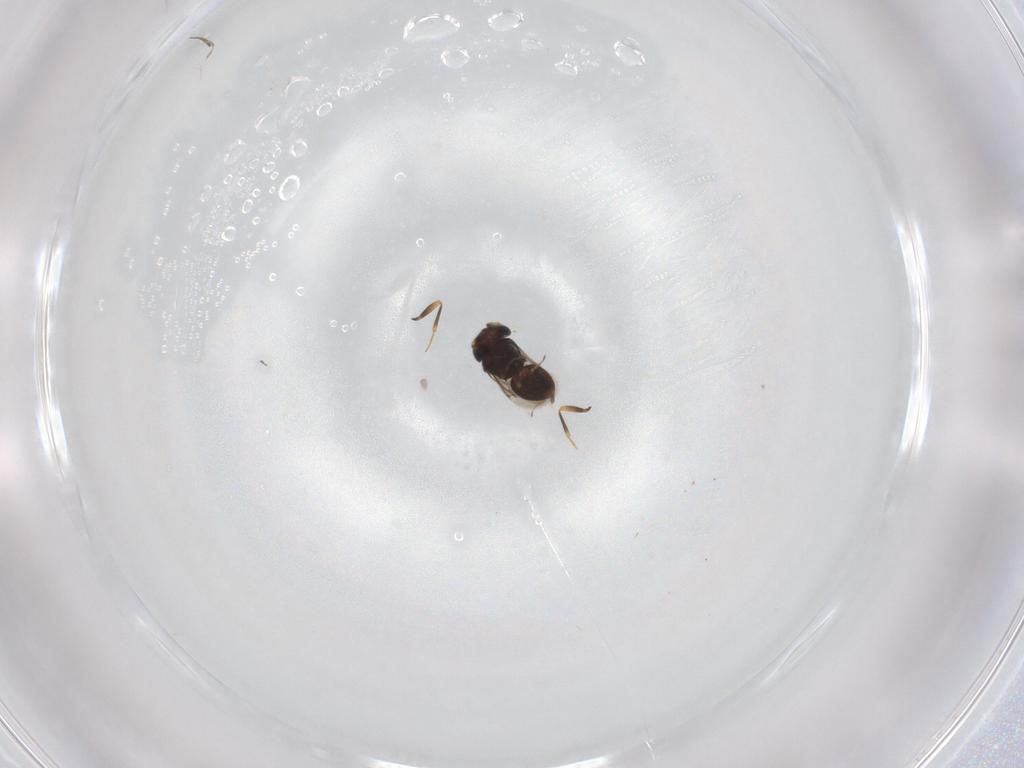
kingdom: Animalia
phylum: Arthropoda
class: Insecta
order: Hymenoptera
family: Scelionidae
